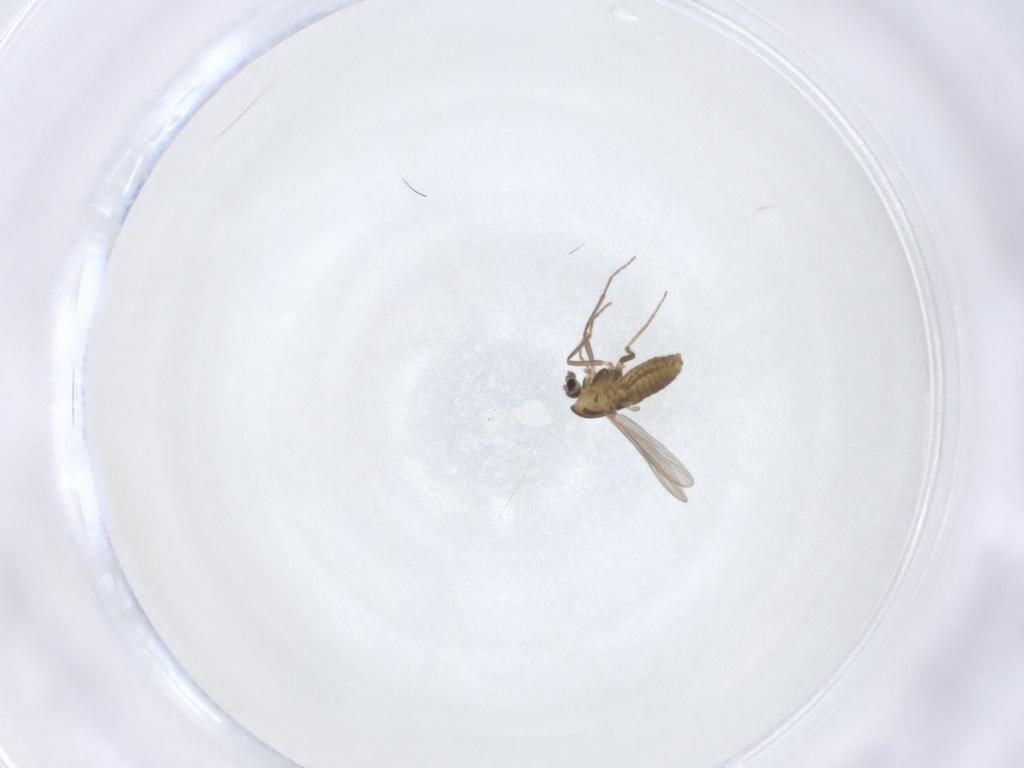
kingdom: Animalia
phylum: Arthropoda
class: Insecta
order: Diptera
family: Chironomidae
